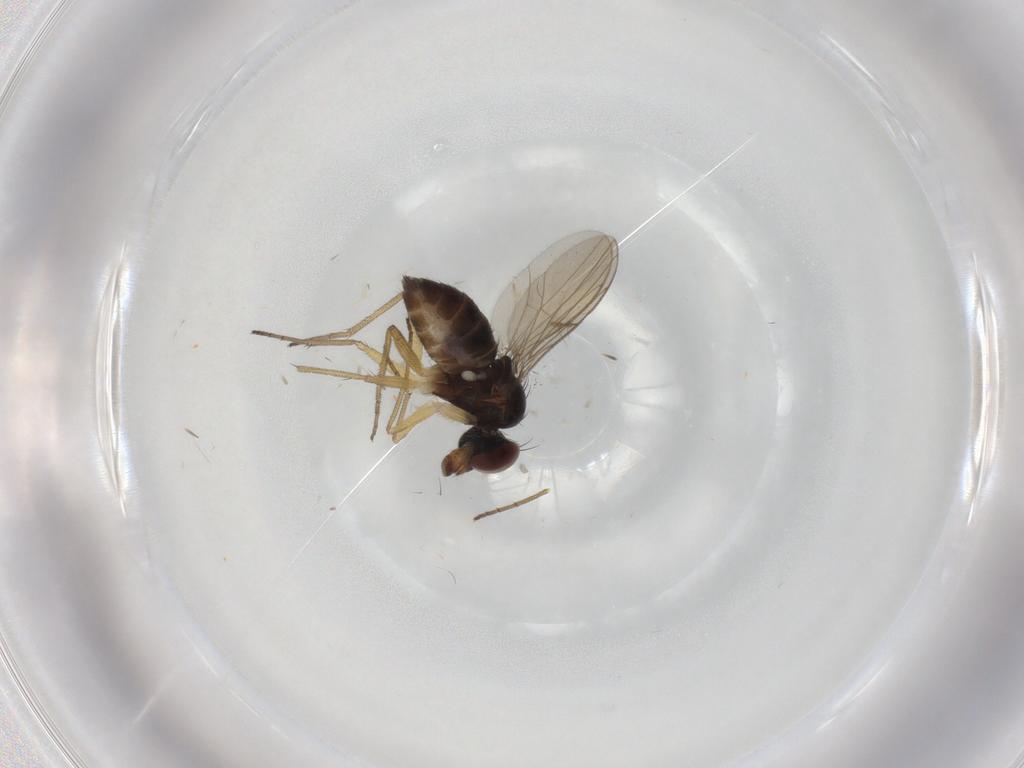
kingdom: Animalia
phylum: Arthropoda
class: Insecta
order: Diptera
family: Dolichopodidae
